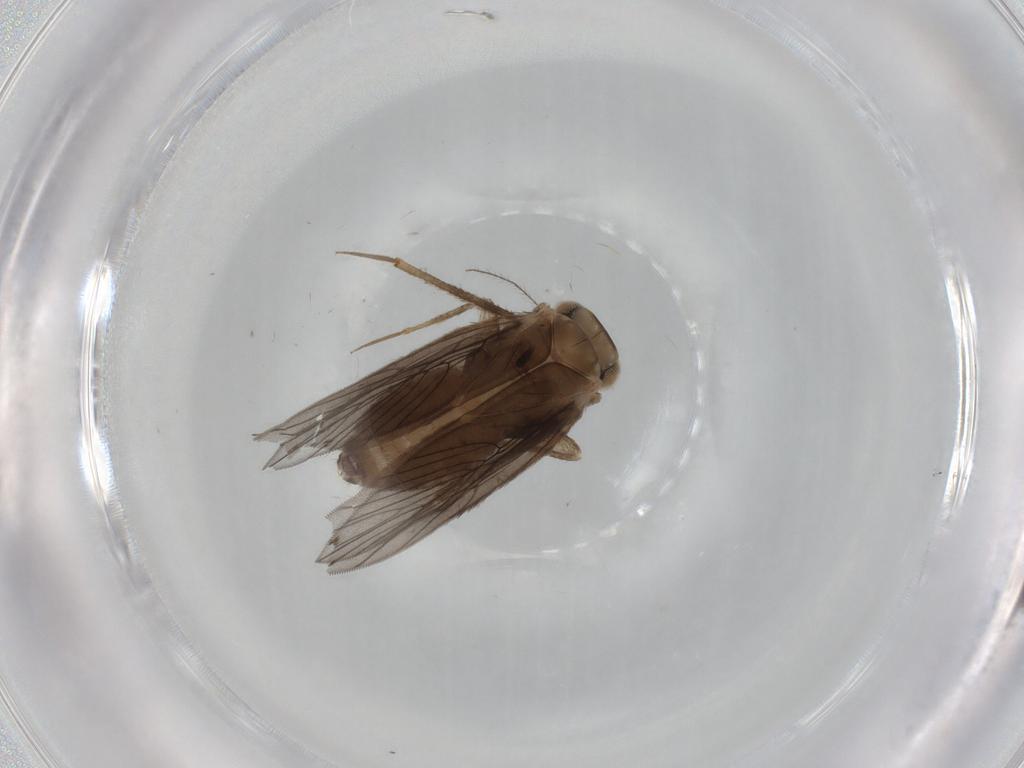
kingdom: Animalia
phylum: Arthropoda
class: Insecta
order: Psocodea
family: Lepidopsocidae
